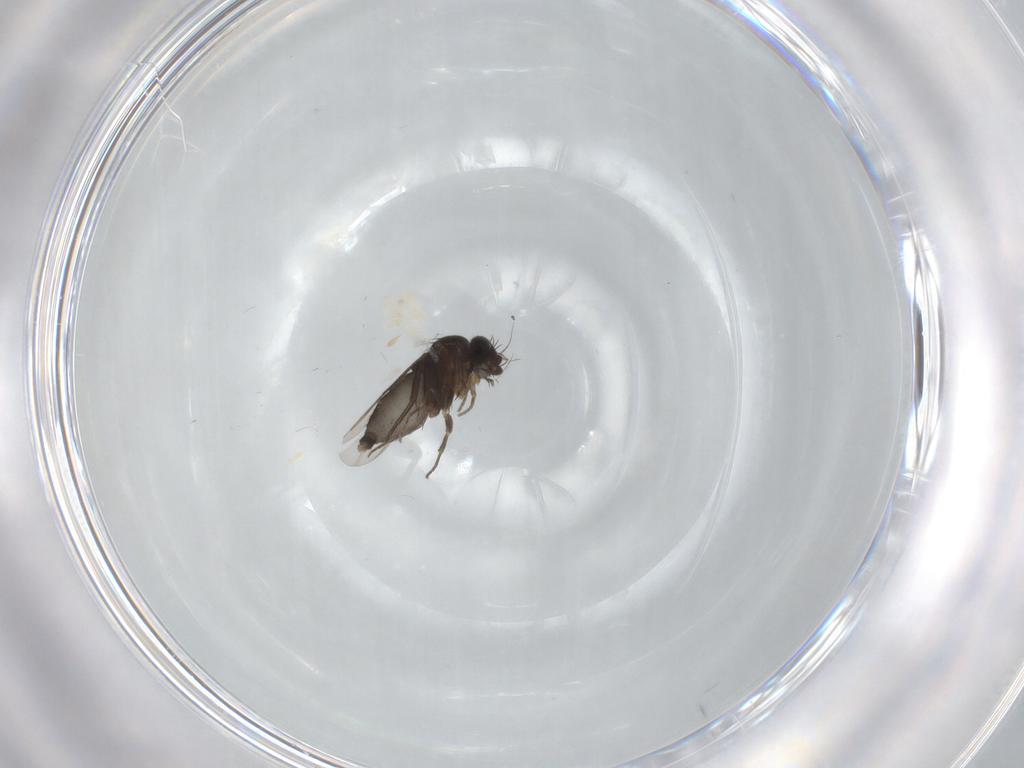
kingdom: Animalia
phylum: Arthropoda
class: Insecta
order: Diptera
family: Phoridae
